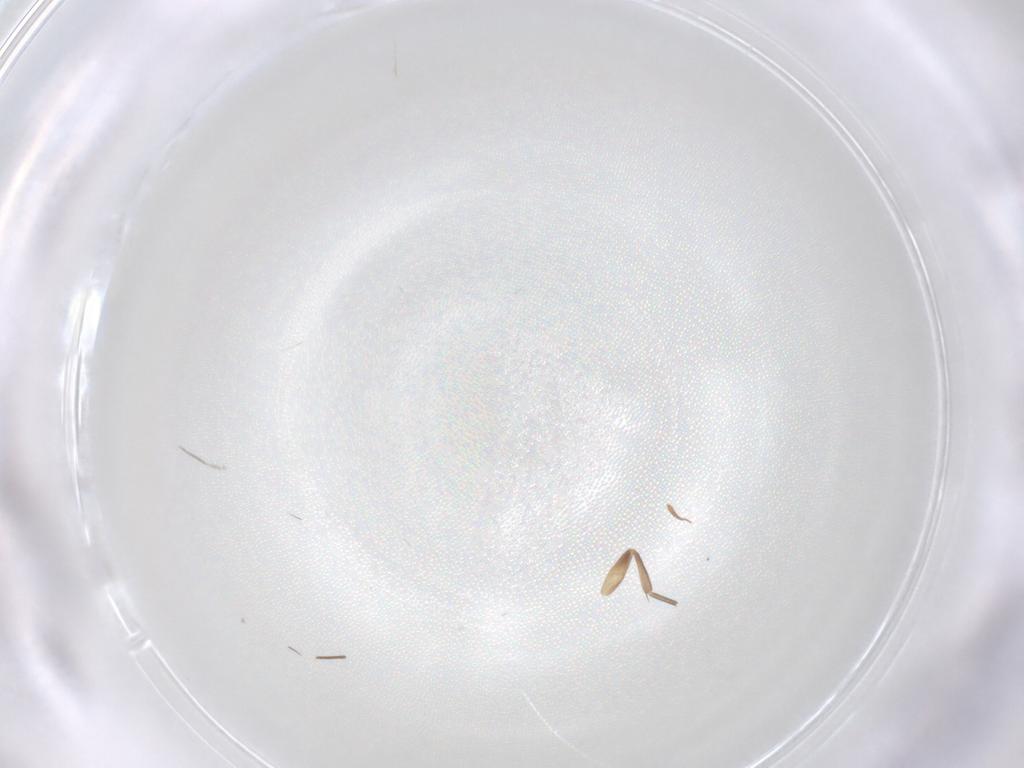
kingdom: Animalia
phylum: Arthropoda
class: Insecta
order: Diptera
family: Chironomidae
